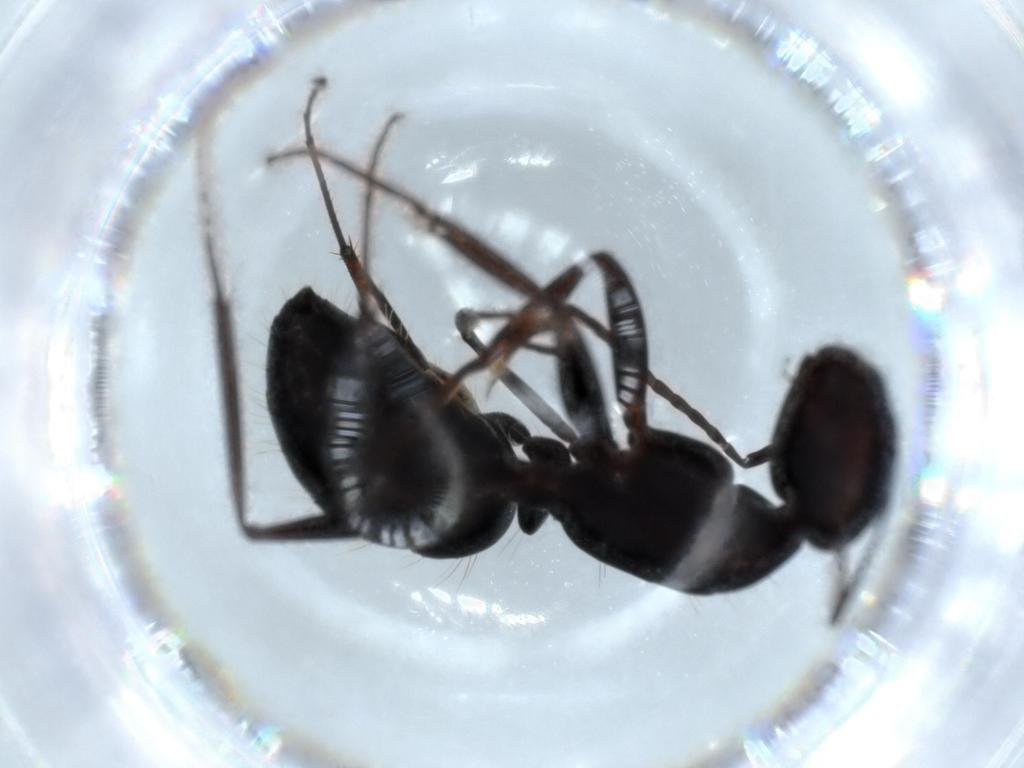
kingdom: Animalia
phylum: Arthropoda
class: Insecta
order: Hymenoptera
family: Formicidae
